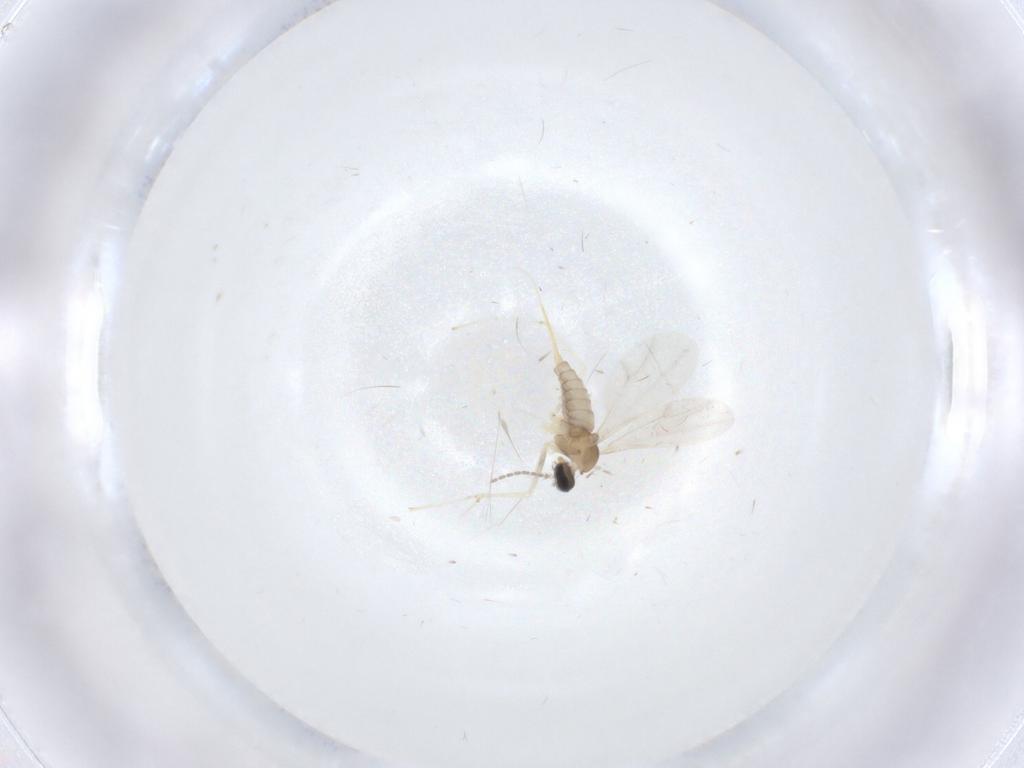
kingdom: Animalia
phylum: Arthropoda
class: Insecta
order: Diptera
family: Cecidomyiidae
